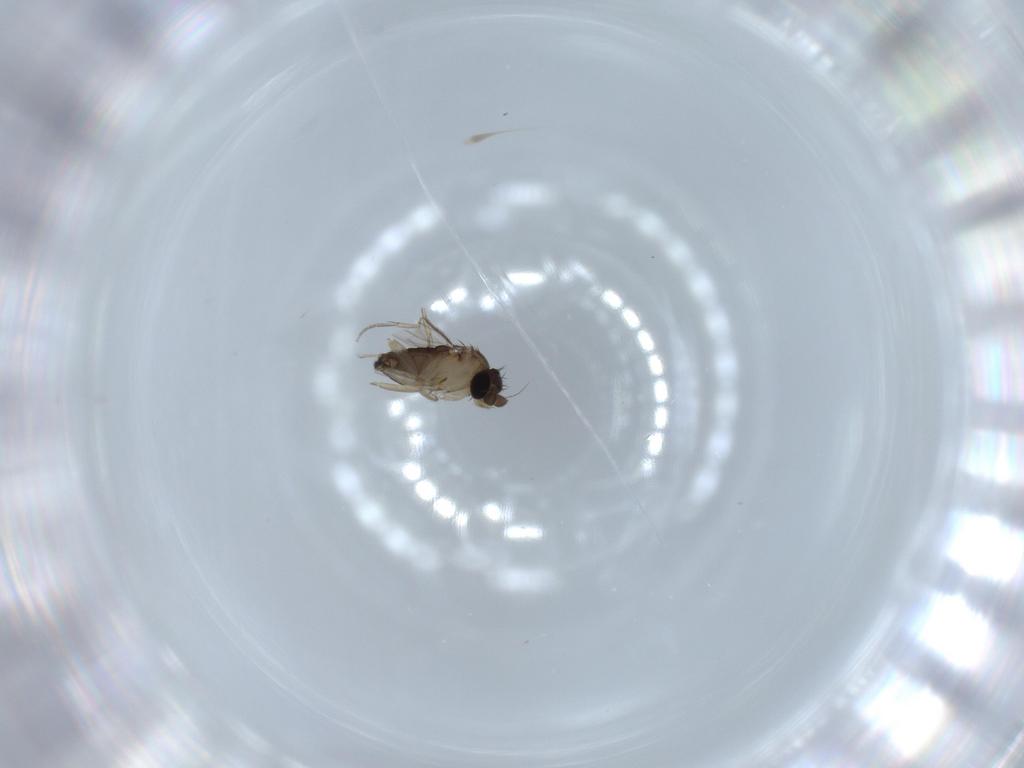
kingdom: Animalia
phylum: Arthropoda
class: Insecta
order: Diptera
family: Phoridae
